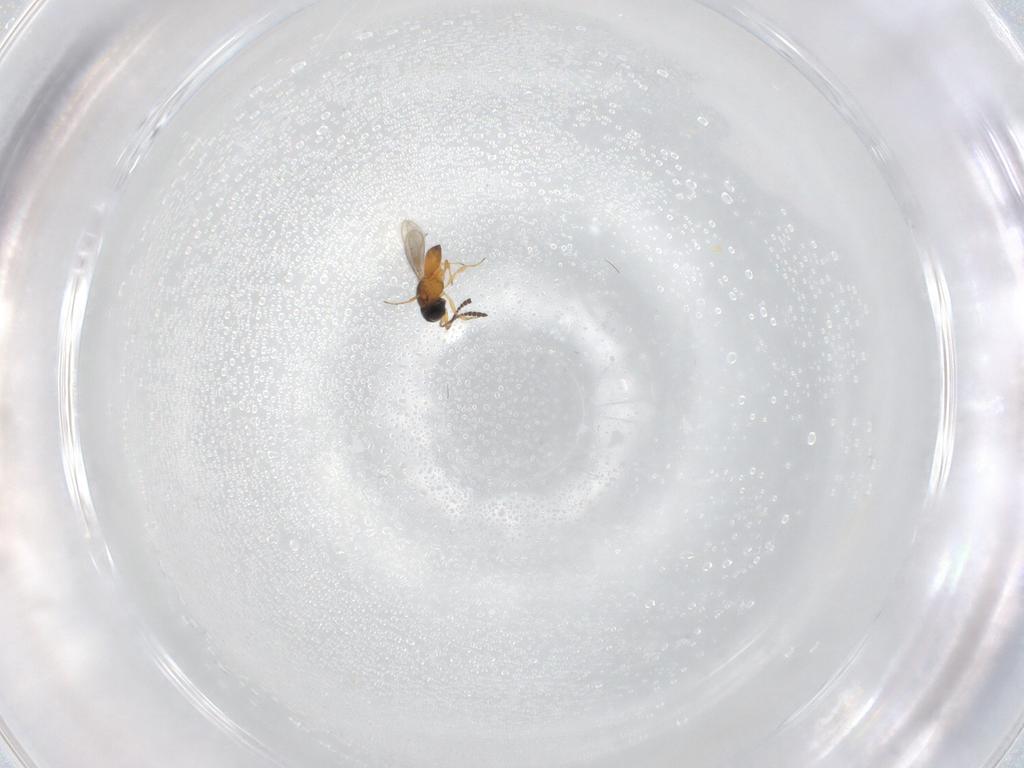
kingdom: Animalia
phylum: Arthropoda
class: Insecta
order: Hymenoptera
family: Scelionidae
